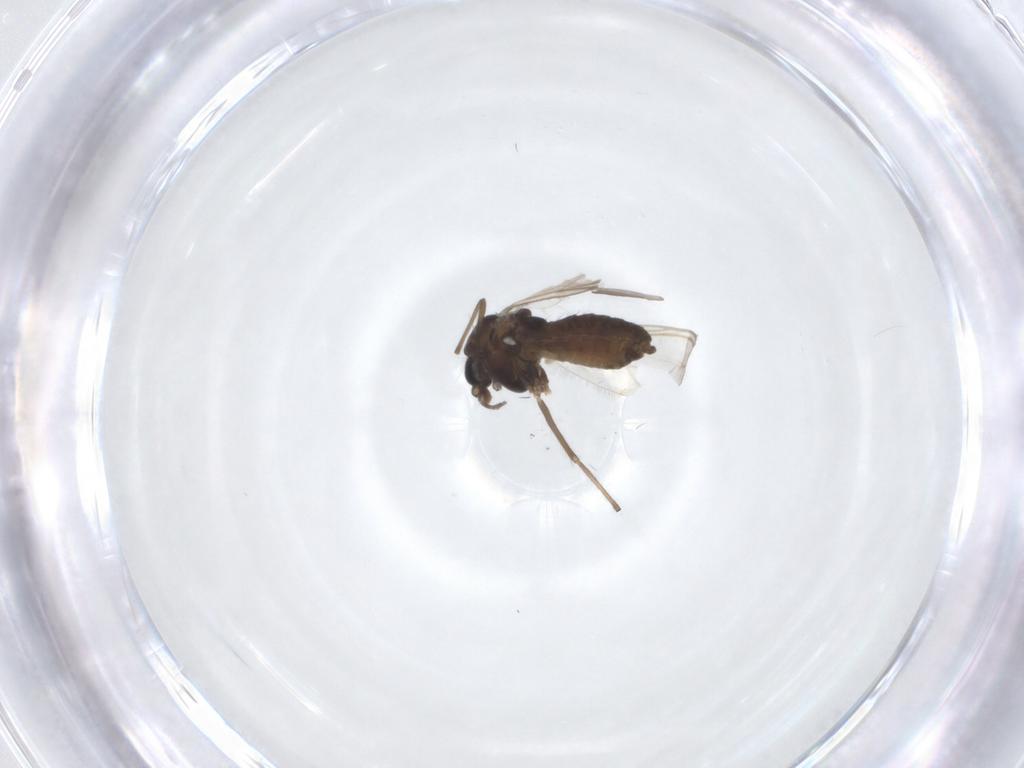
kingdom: Animalia
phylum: Arthropoda
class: Insecta
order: Diptera
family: Chironomidae
